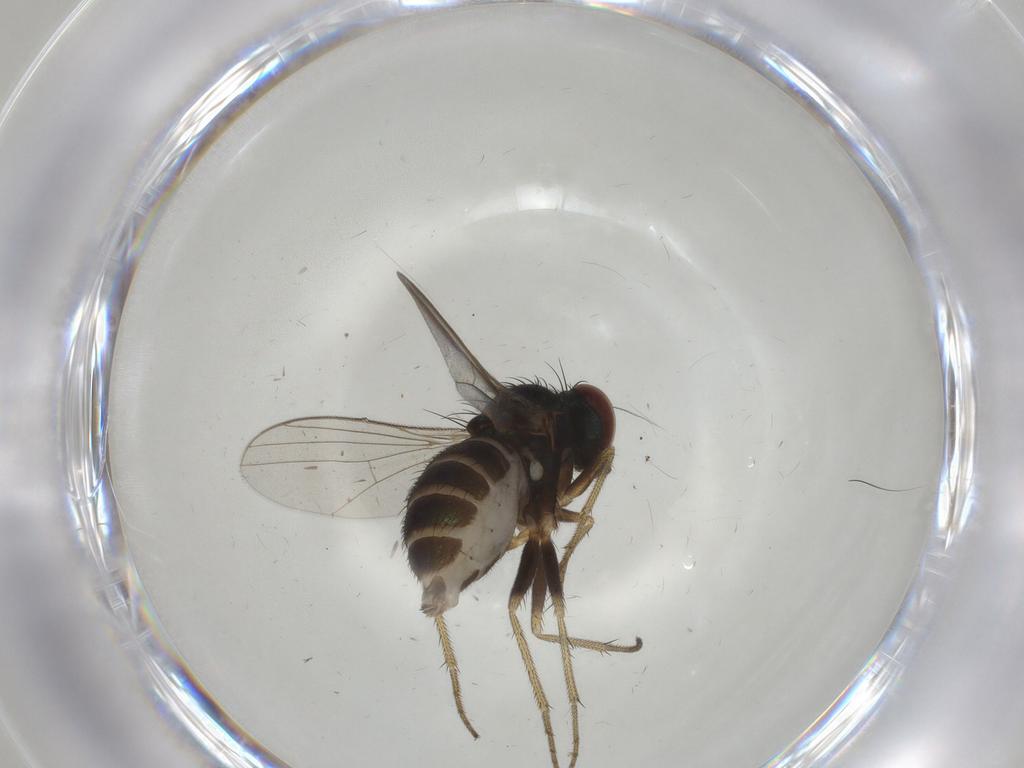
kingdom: Animalia
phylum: Arthropoda
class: Insecta
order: Diptera
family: Dolichopodidae
